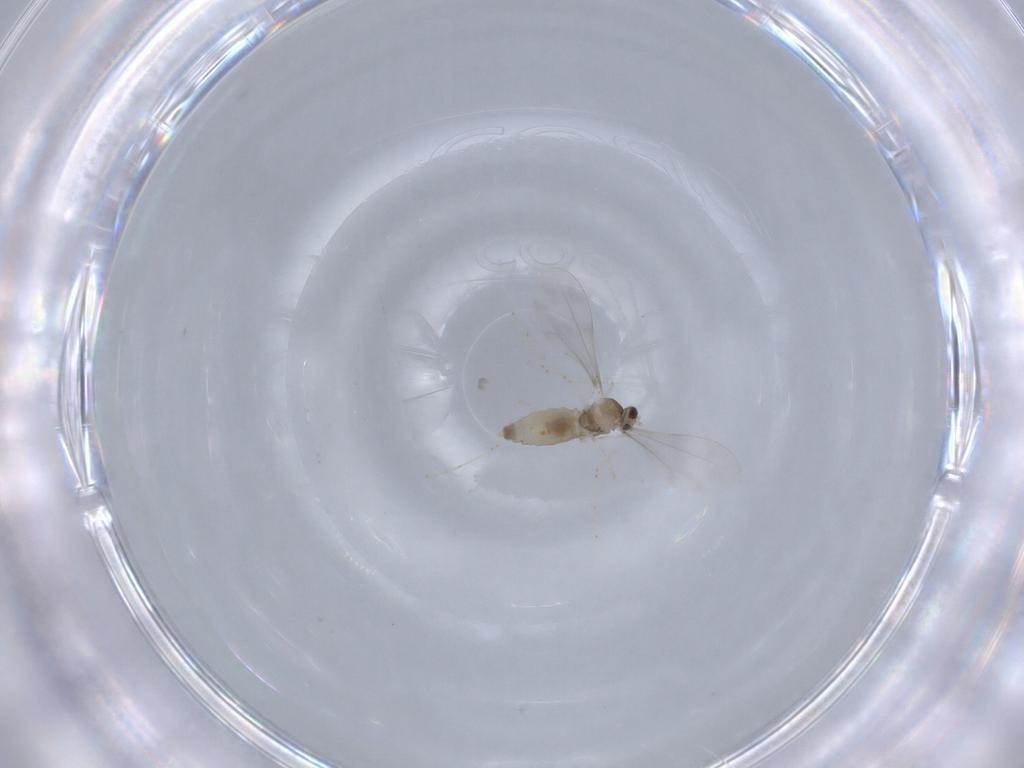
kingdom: Animalia
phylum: Arthropoda
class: Insecta
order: Diptera
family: Cecidomyiidae
